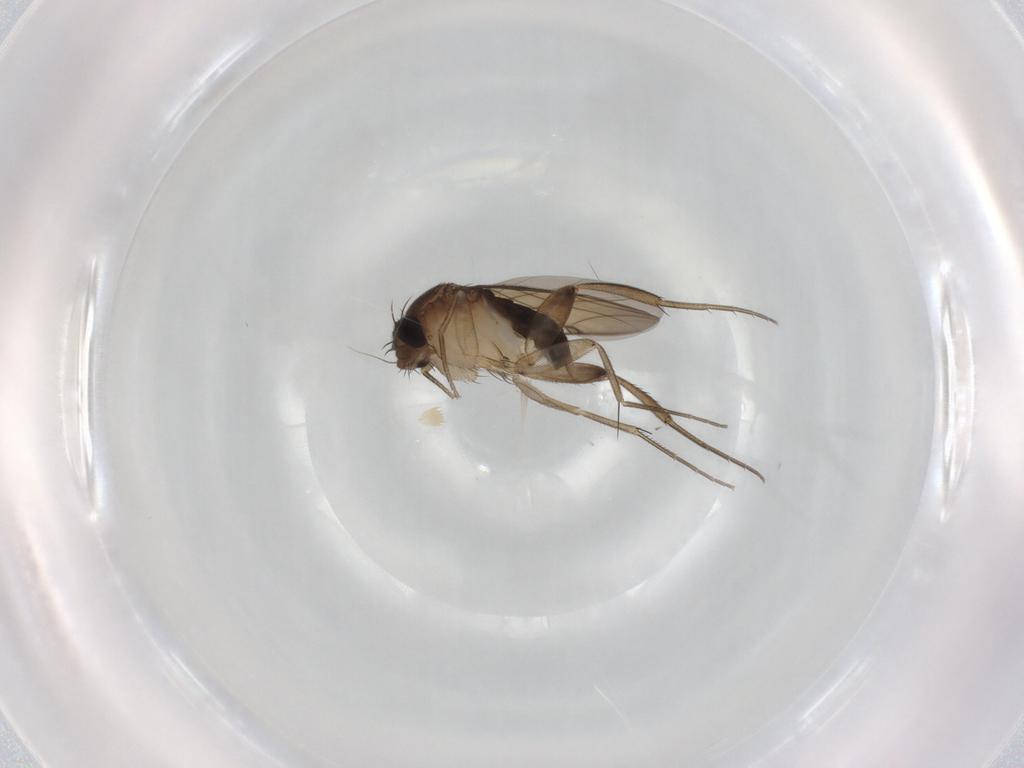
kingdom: Animalia
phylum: Arthropoda
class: Insecta
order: Diptera
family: Phoridae
